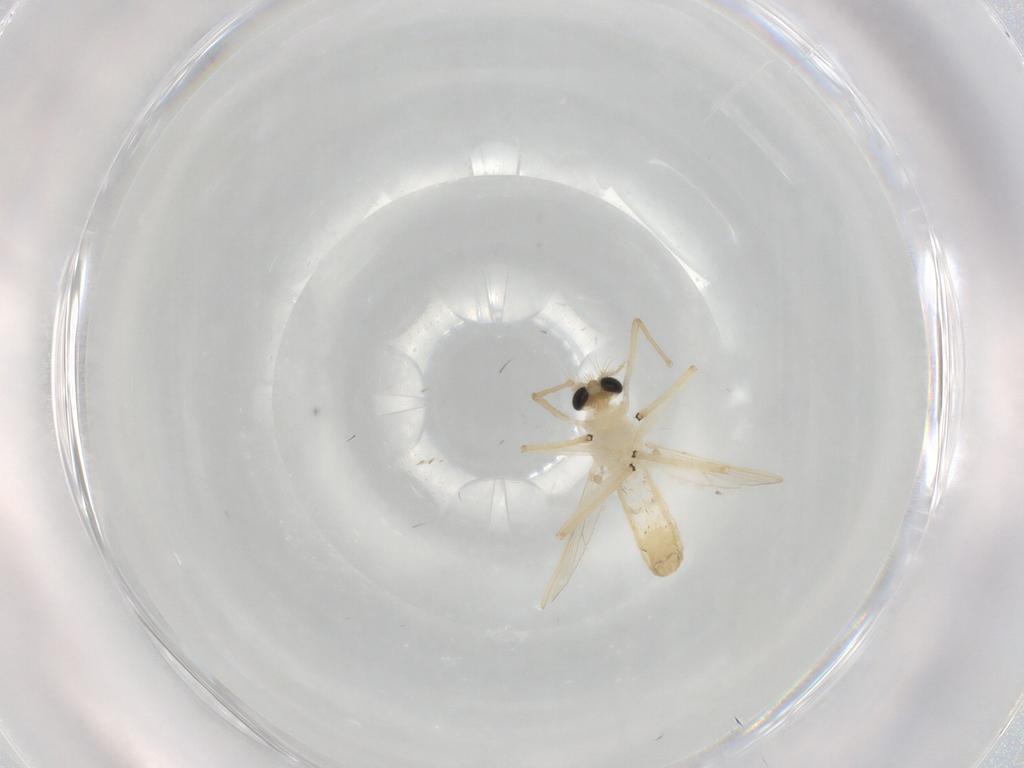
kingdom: Animalia
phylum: Arthropoda
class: Insecta
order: Diptera
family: Chironomidae
